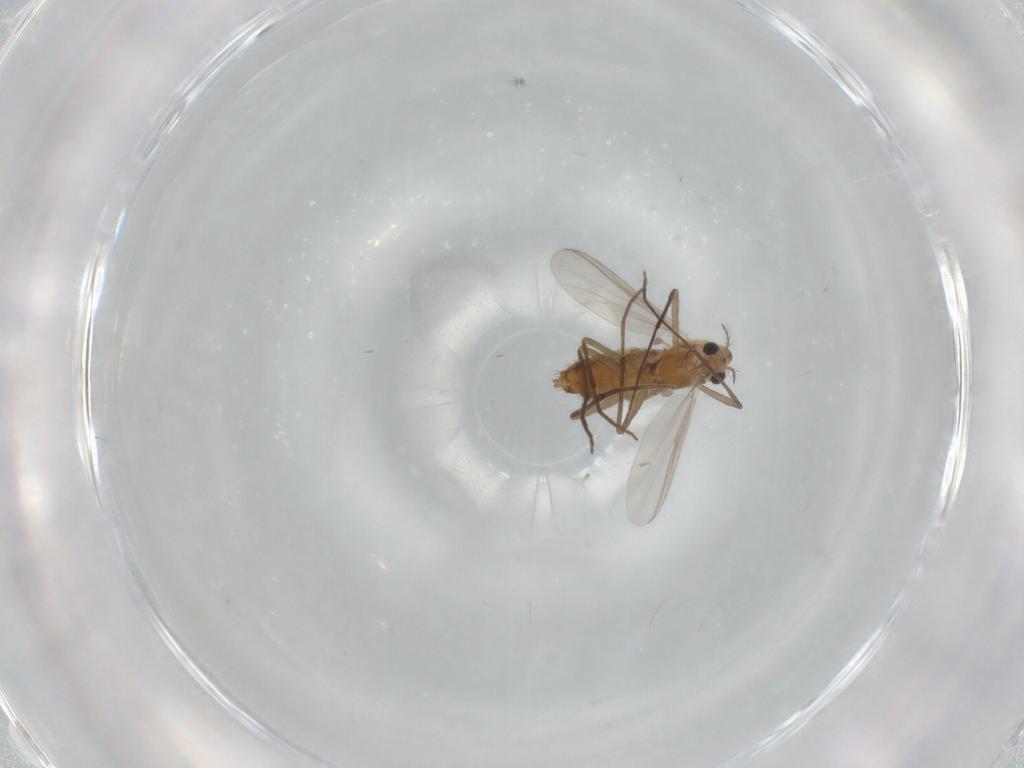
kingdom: Animalia
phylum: Arthropoda
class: Insecta
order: Diptera
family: Chironomidae
